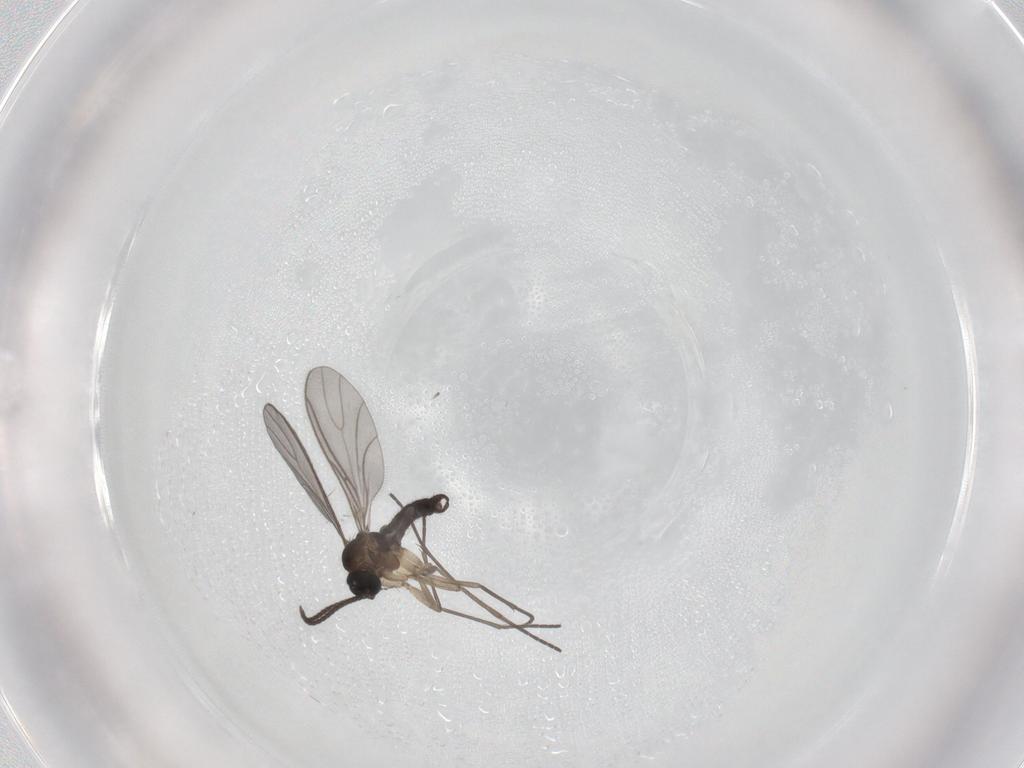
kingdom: Animalia
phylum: Arthropoda
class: Insecta
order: Diptera
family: Sciaridae
